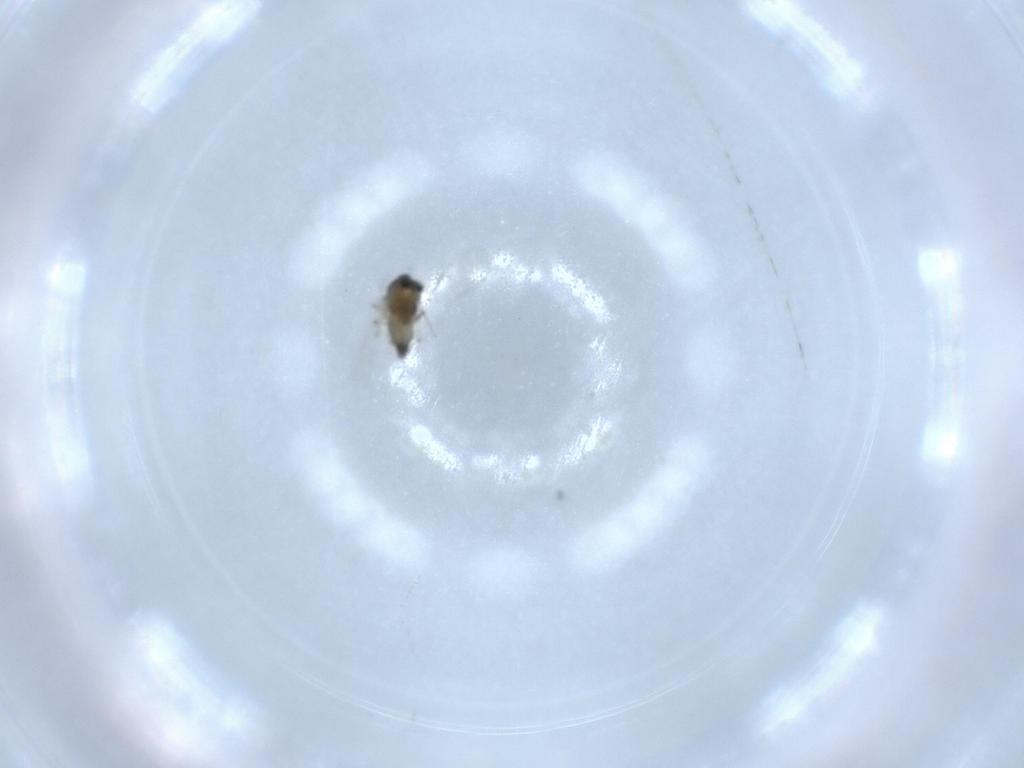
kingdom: Animalia
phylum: Arthropoda
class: Insecta
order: Diptera
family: Chironomidae
